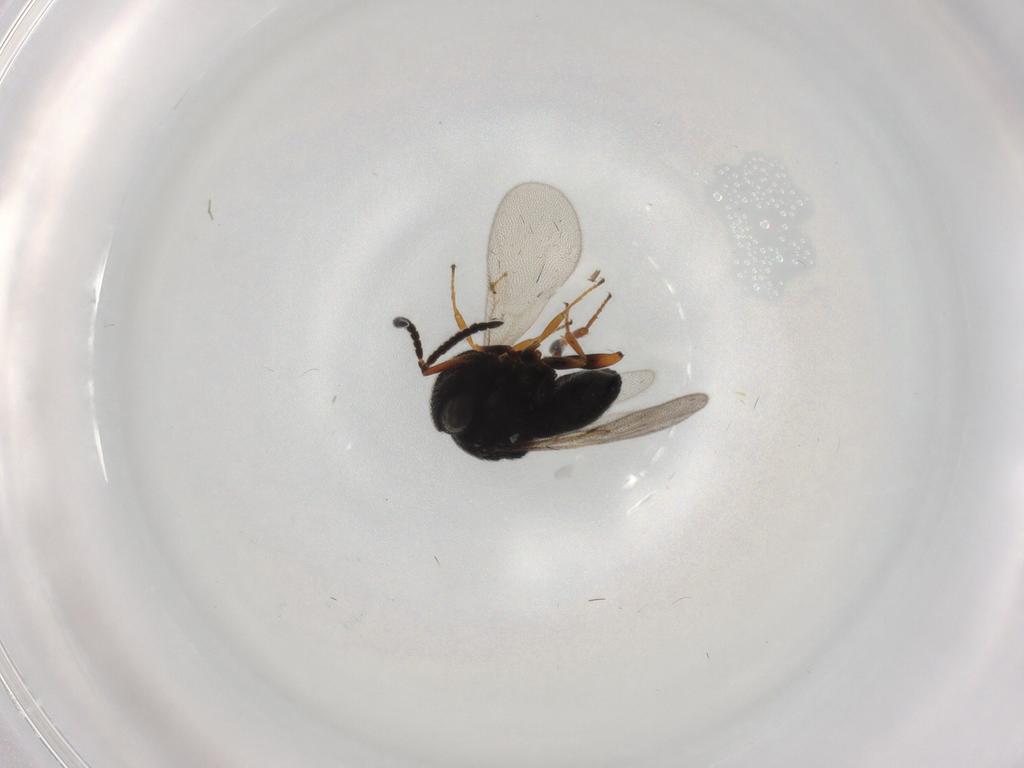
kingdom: Animalia
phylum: Arthropoda
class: Insecta
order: Hymenoptera
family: Scelionidae
